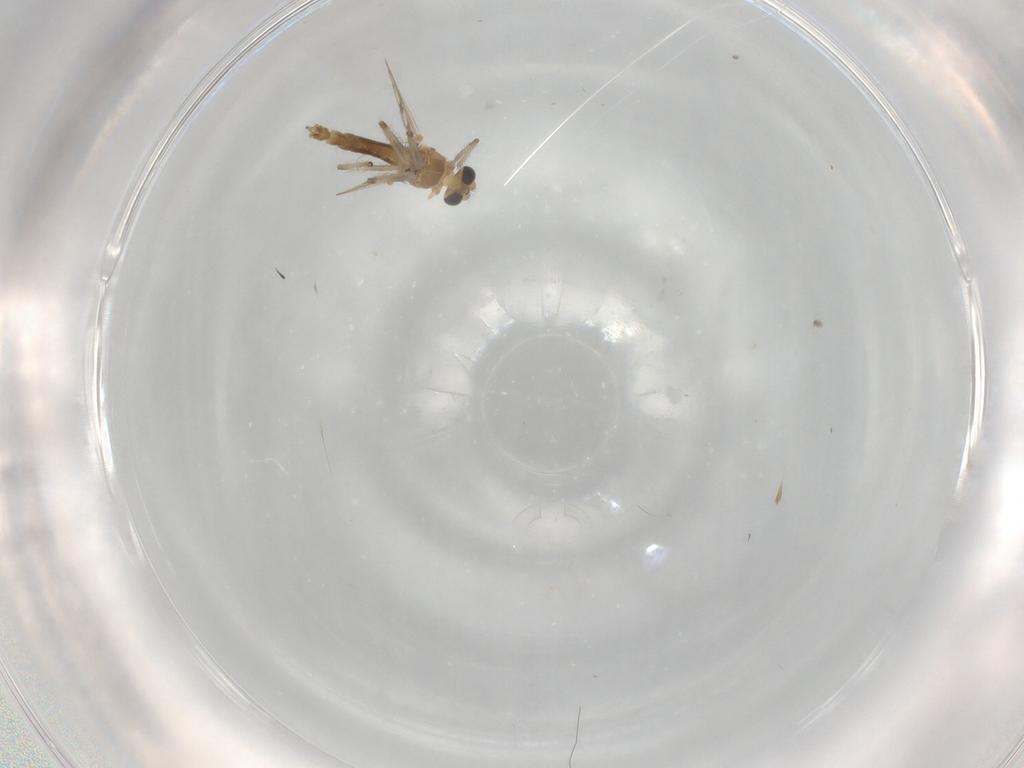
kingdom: Animalia
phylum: Arthropoda
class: Insecta
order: Diptera
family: Chironomidae
